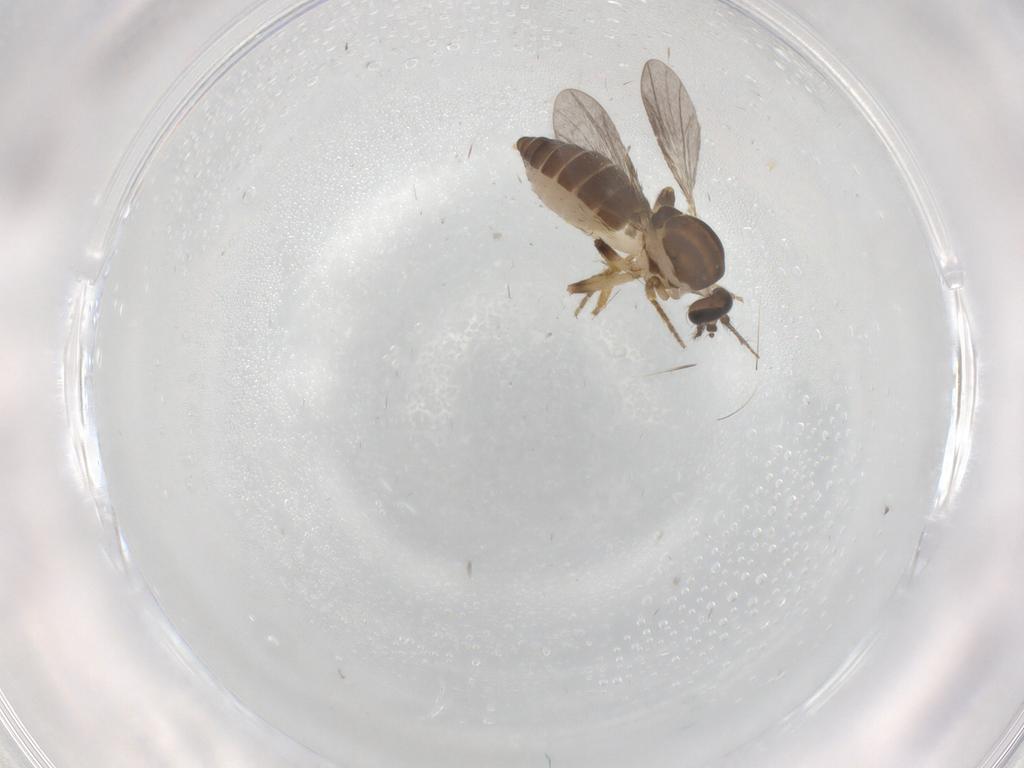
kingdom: Animalia
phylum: Arthropoda
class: Insecta
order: Diptera
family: Ceratopogonidae
